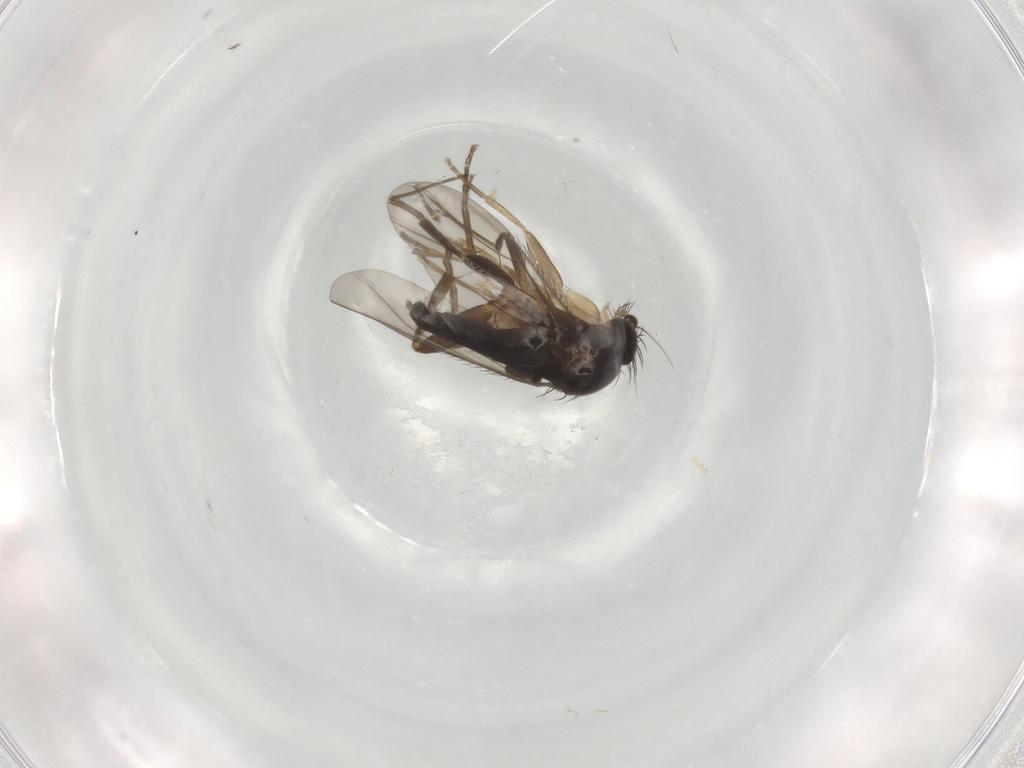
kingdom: Animalia
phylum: Arthropoda
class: Insecta
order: Diptera
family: Phoridae
